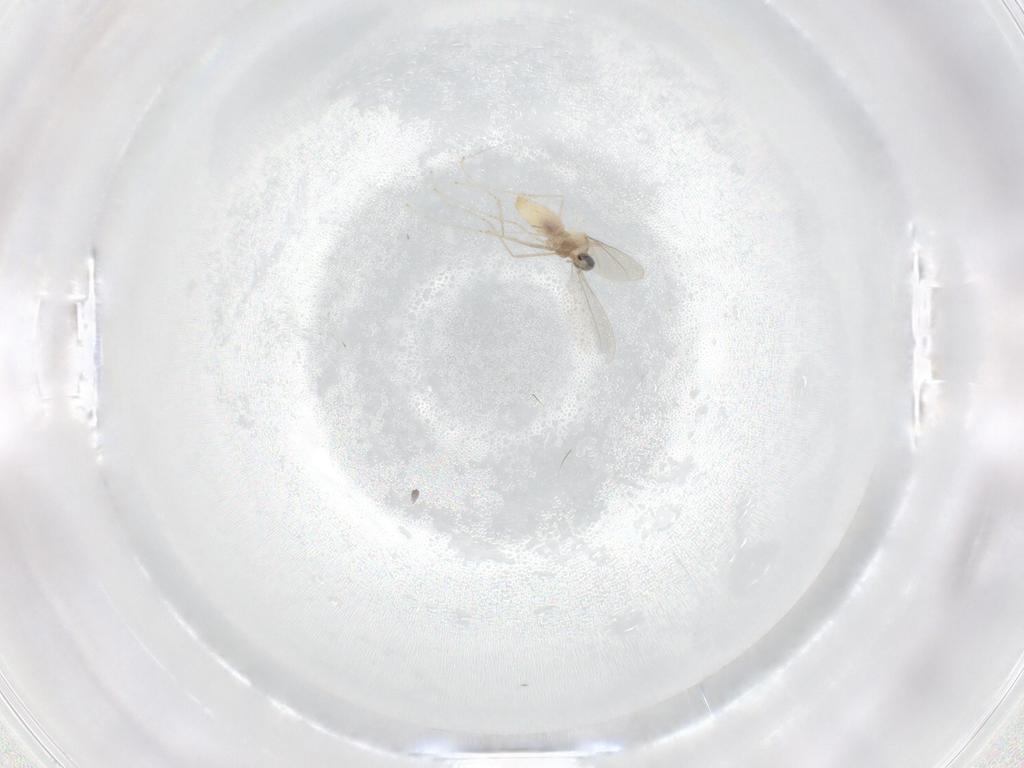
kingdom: Animalia
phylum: Arthropoda
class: Insecta
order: Diptera
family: Cecidomyiidae
